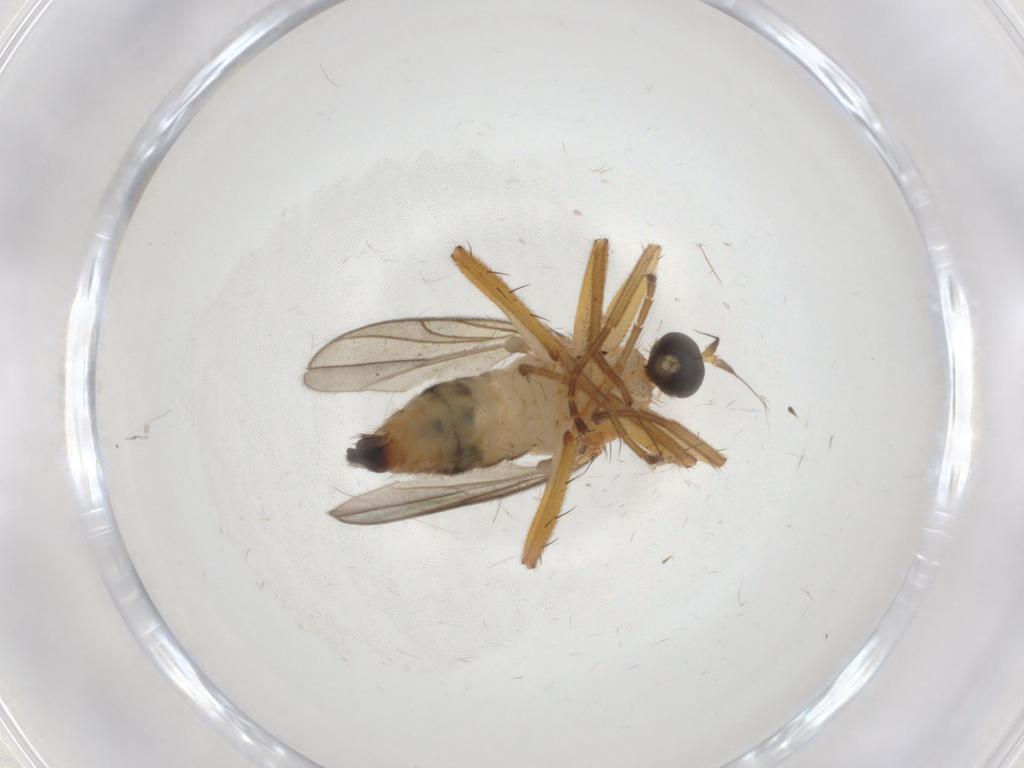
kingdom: Animalia
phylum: Arthropoda
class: Insecta
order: Diptera
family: Hybotidae
